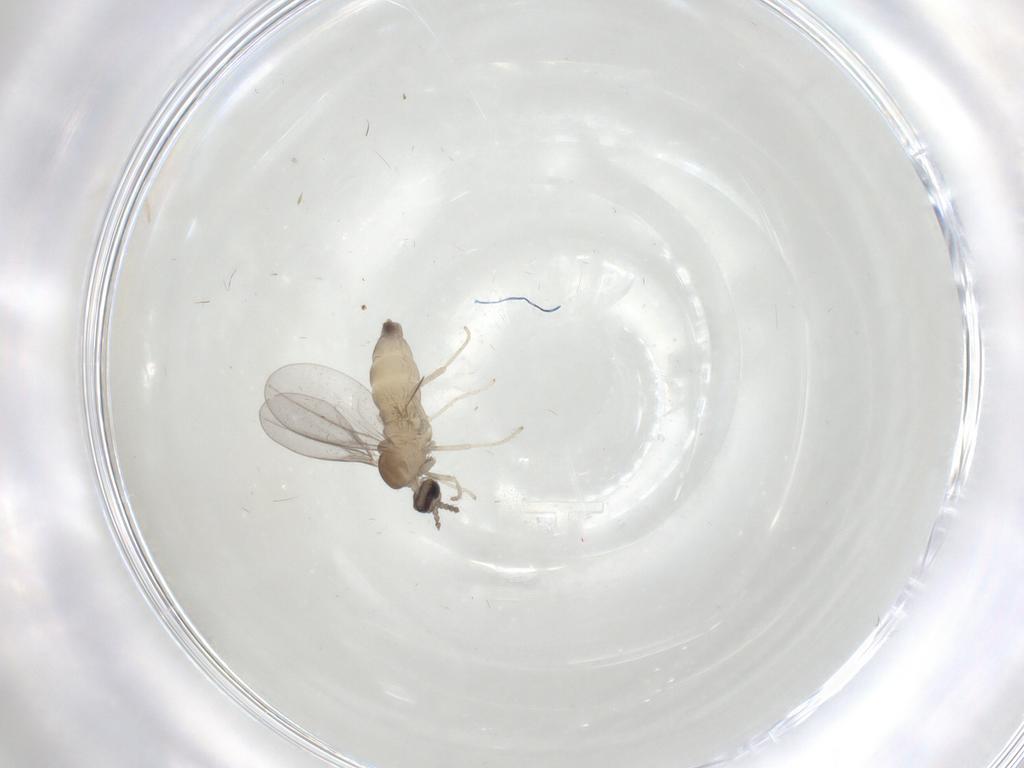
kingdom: Animalia
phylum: Arthropoda
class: Insecta
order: Diptera
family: Cecidomyiidae
